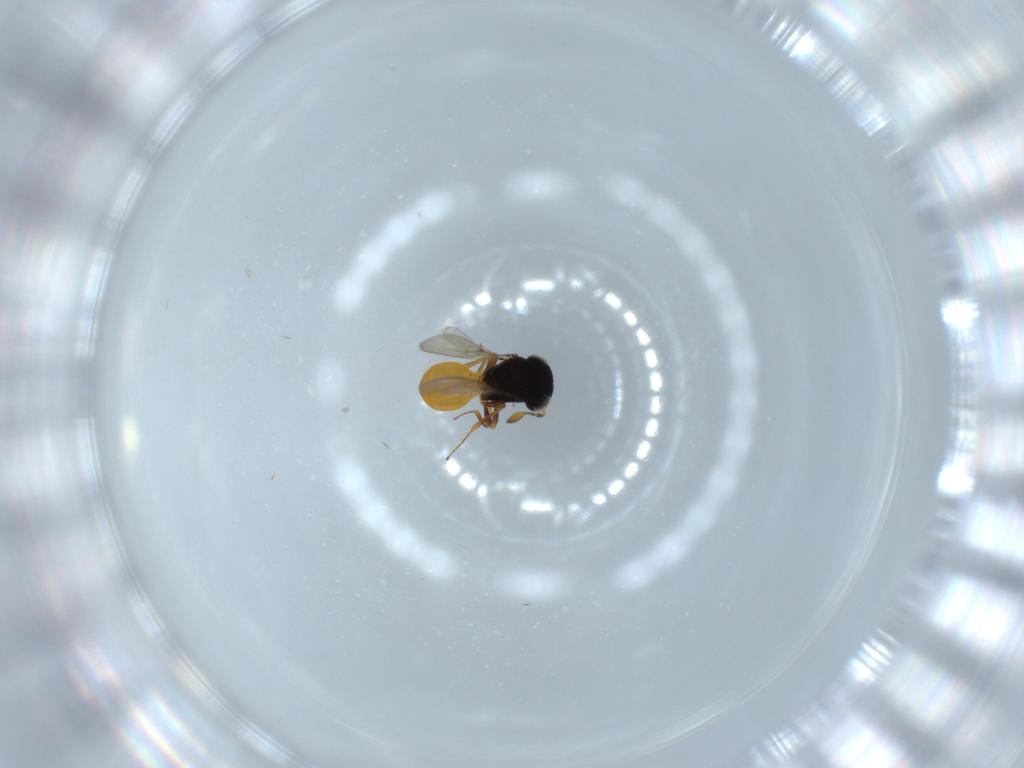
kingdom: Animalia
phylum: Arthropoda
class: Insecta
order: Hymenoptera
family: Scelionidae
